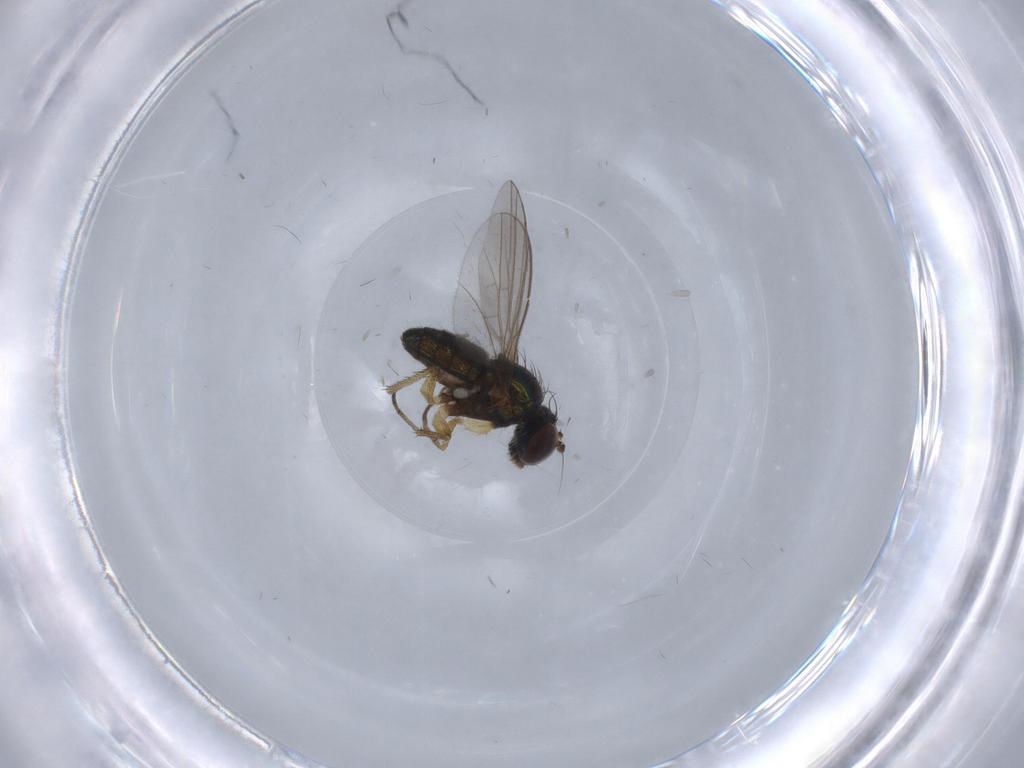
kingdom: Animalia
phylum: Arthropoda
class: Insecta
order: Diptera
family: Dolichopodidae
